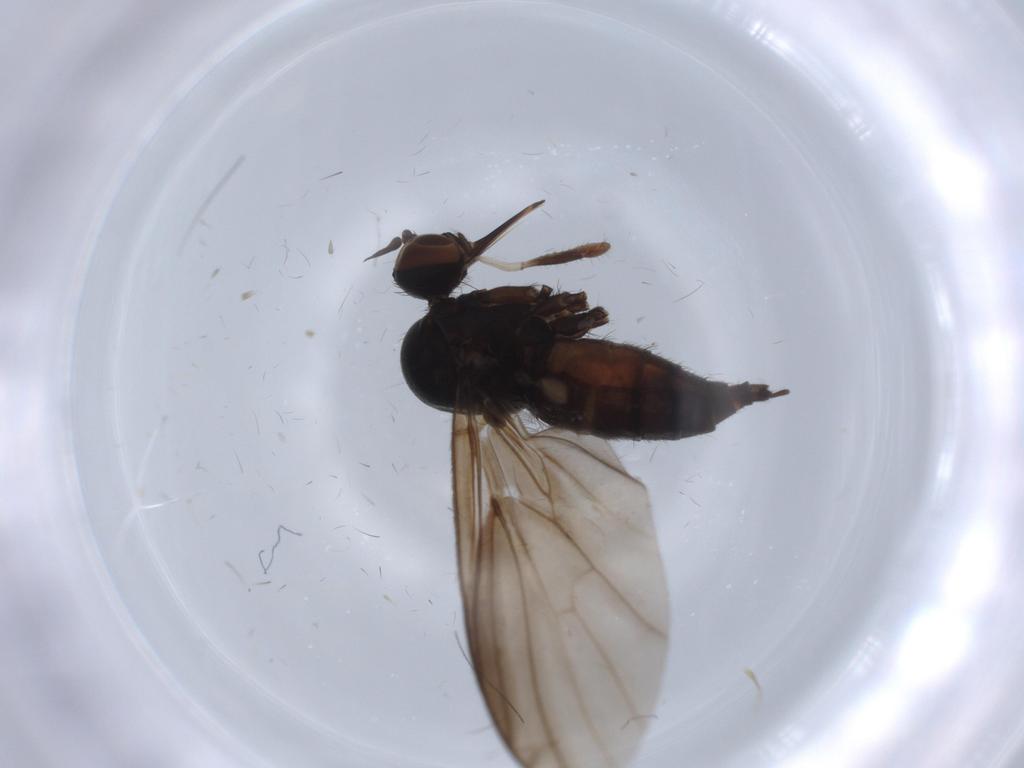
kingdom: Animalia
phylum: Arthropoda
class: Insecta
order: Diptera
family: Empididae
